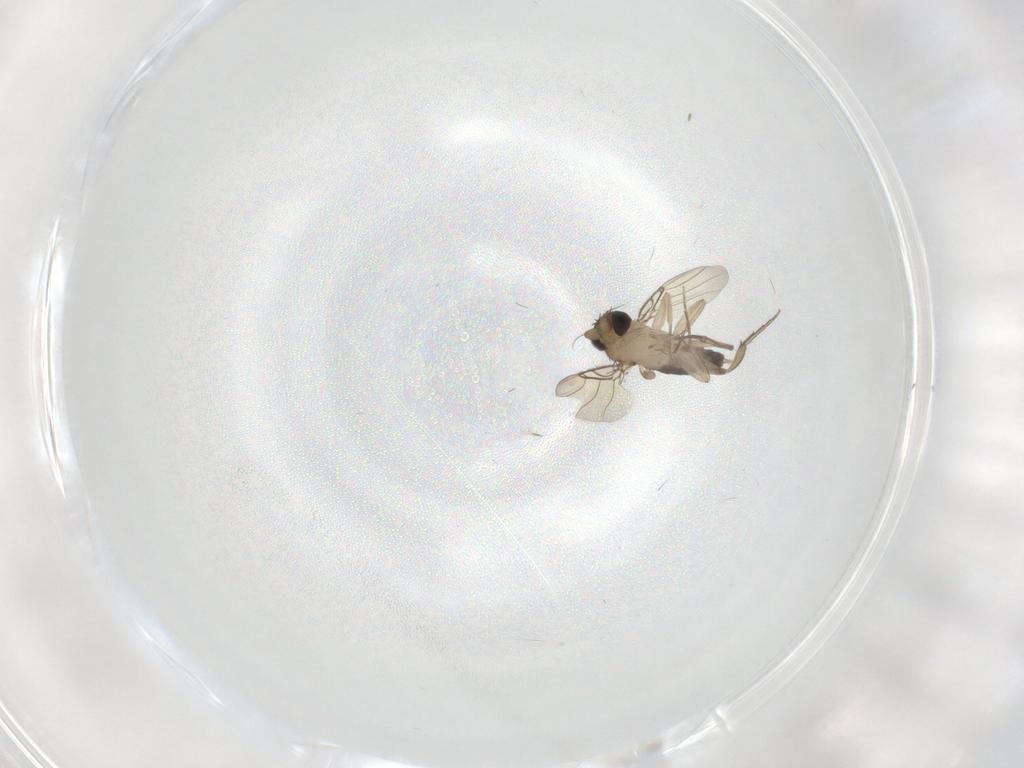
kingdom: Animalia
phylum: Arthropoda
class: Insecta
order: Diptera
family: Phoridae
